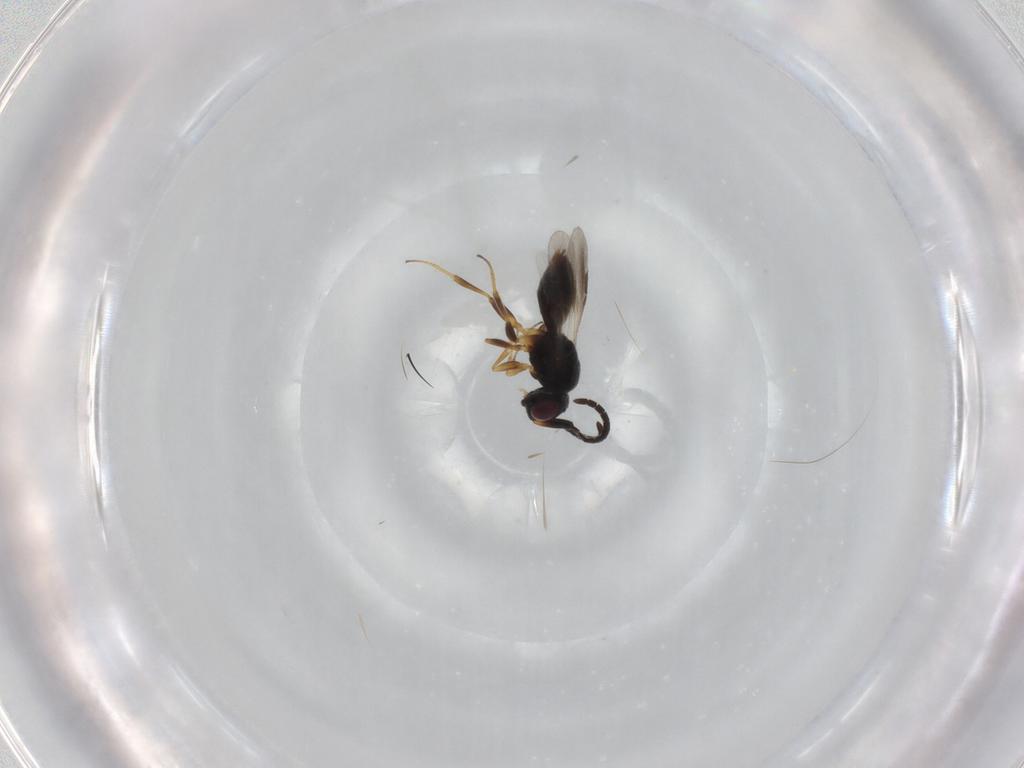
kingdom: Animalia
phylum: Arthropoda
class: Insecta
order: Hymenoptera
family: Megaspilidae
